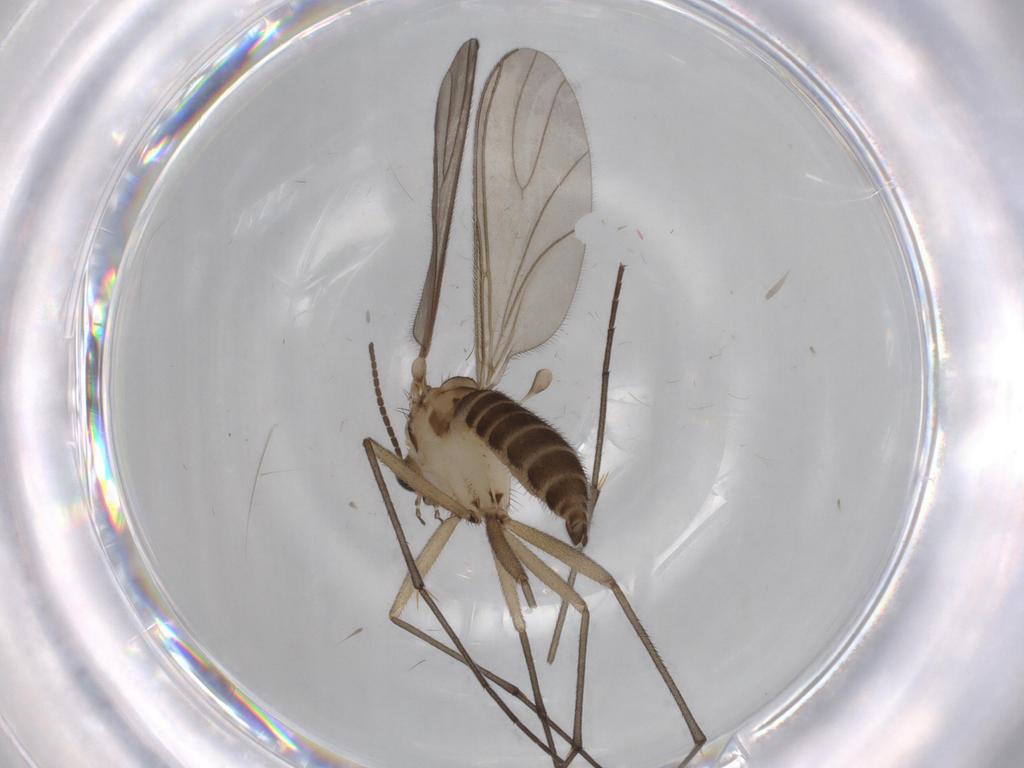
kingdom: Animalia
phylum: Arthropoda
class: Insecta
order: Diptera
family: Sciaridae
